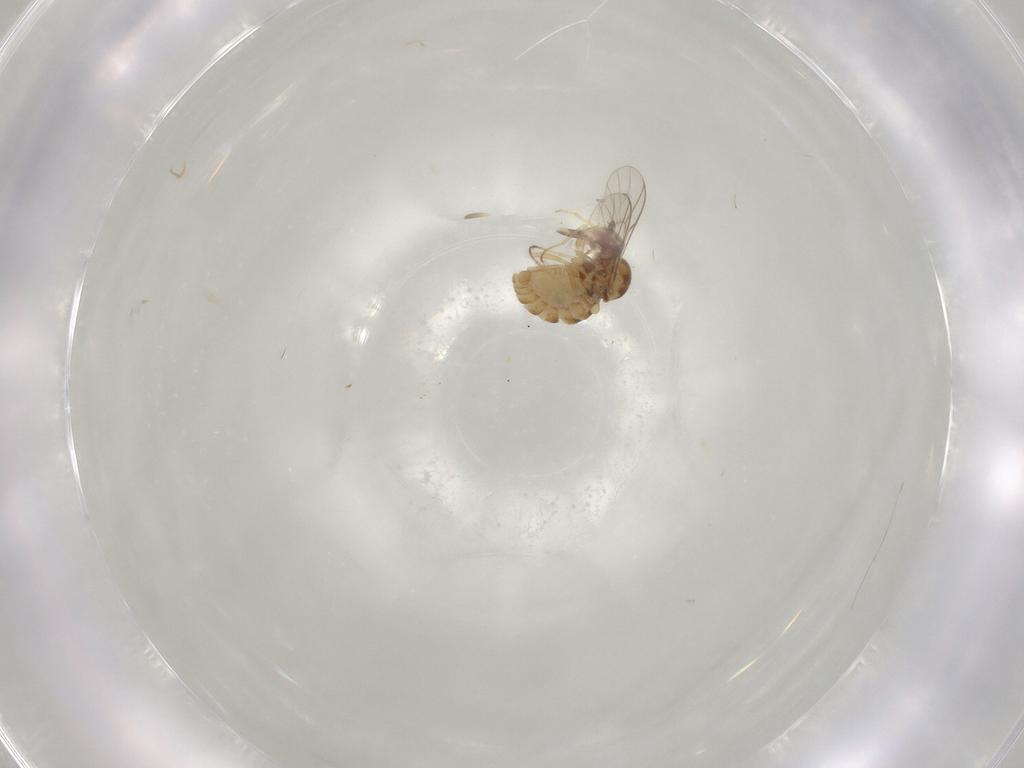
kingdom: Animalia
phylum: Arthropoda
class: Insecta
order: Diptera
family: Mythicomyiidae
